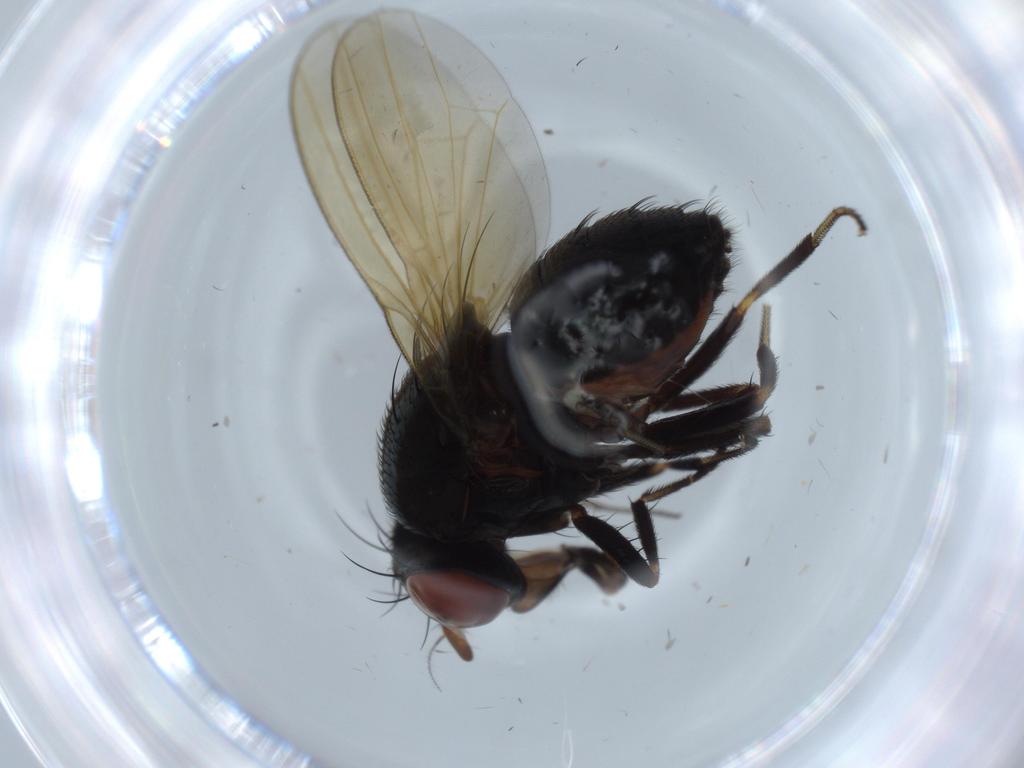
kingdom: Animalia
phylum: Arthropoda
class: Insecta
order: Diptera
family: Lauxaniidae
